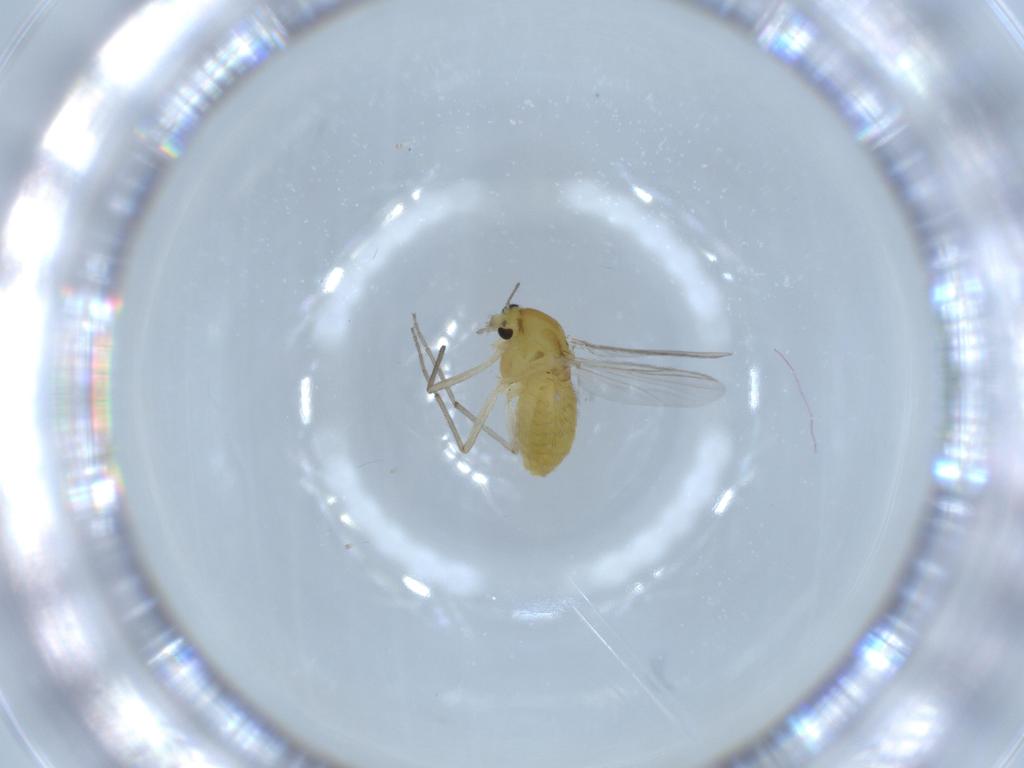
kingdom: Animalia
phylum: Arthropoda
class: Insecta
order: Diptera
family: Chironomidae
